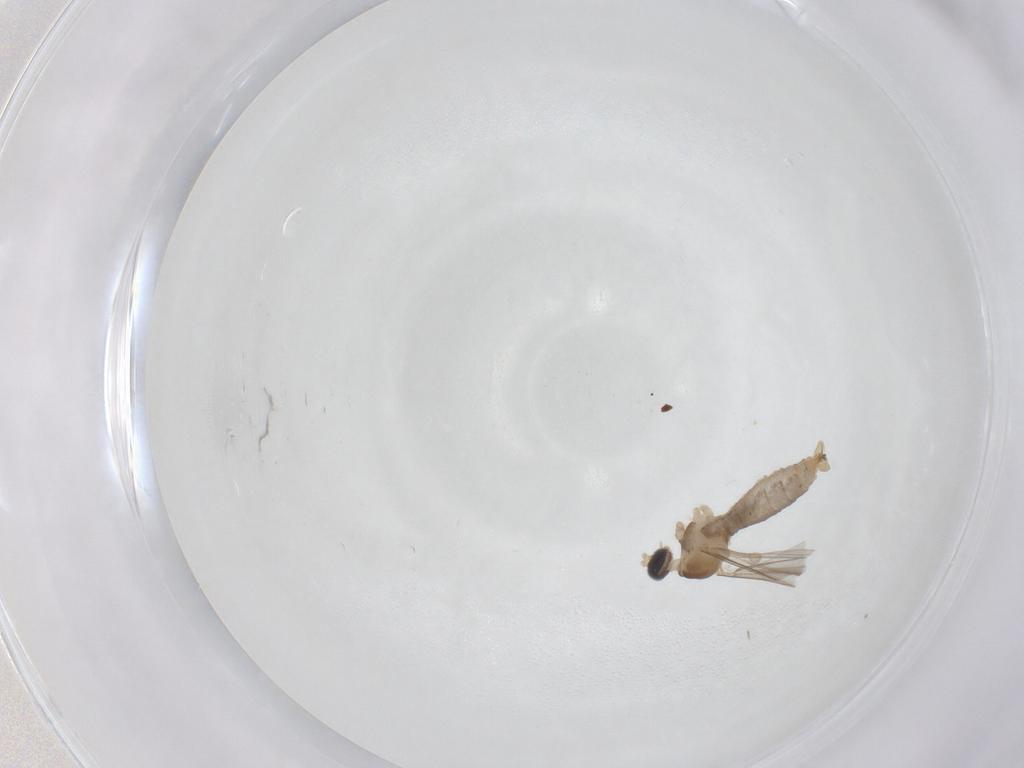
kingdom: Animalia
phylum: Arthropoda
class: Insecta
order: Diptera
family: Cecidomyiidae
